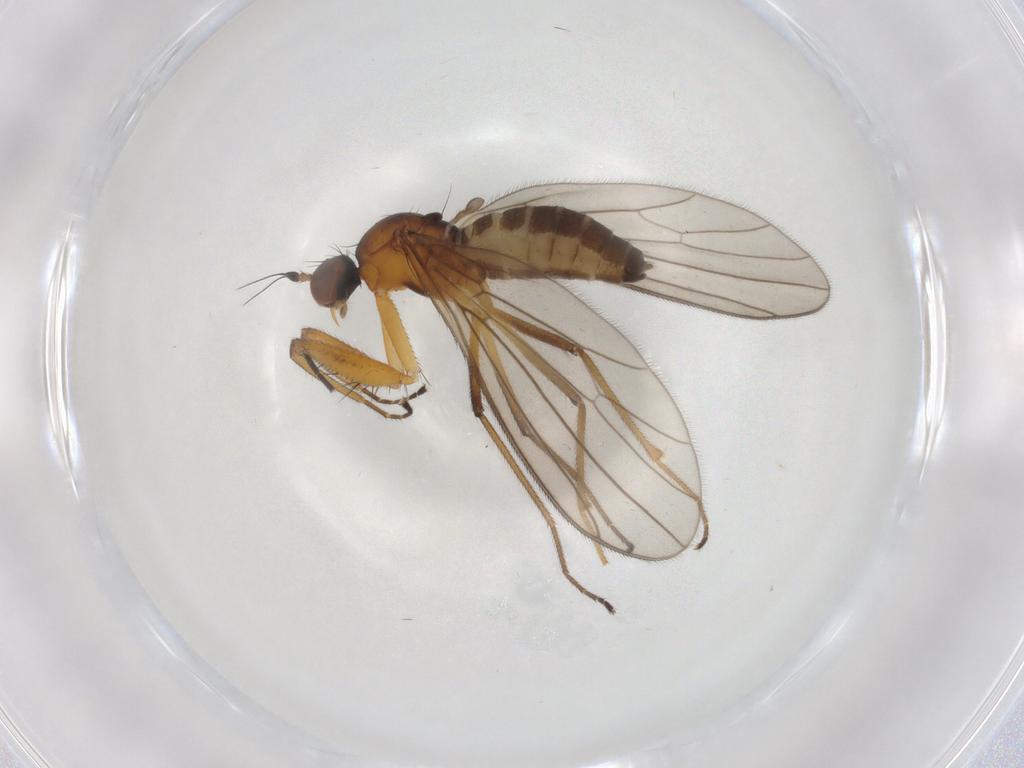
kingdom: Animalia
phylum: Arthropoda
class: Insecta
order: Diptera
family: Empididae
